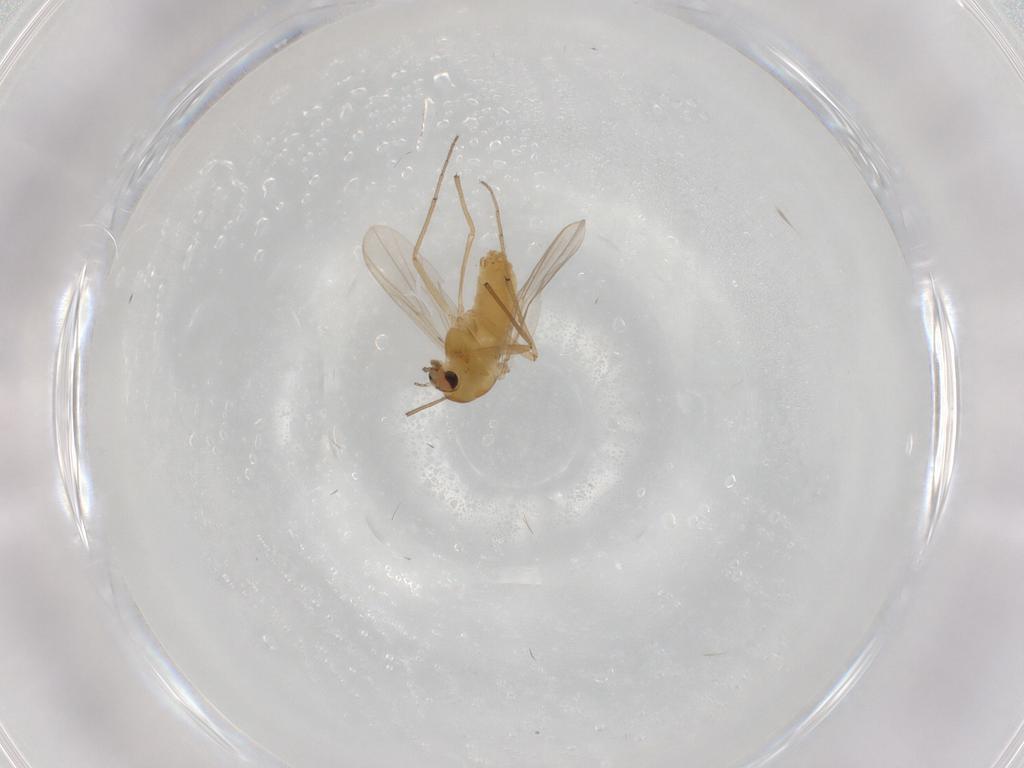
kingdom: Animalia
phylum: Arthropoda
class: Insecta
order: Diptera
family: Chironomidae
